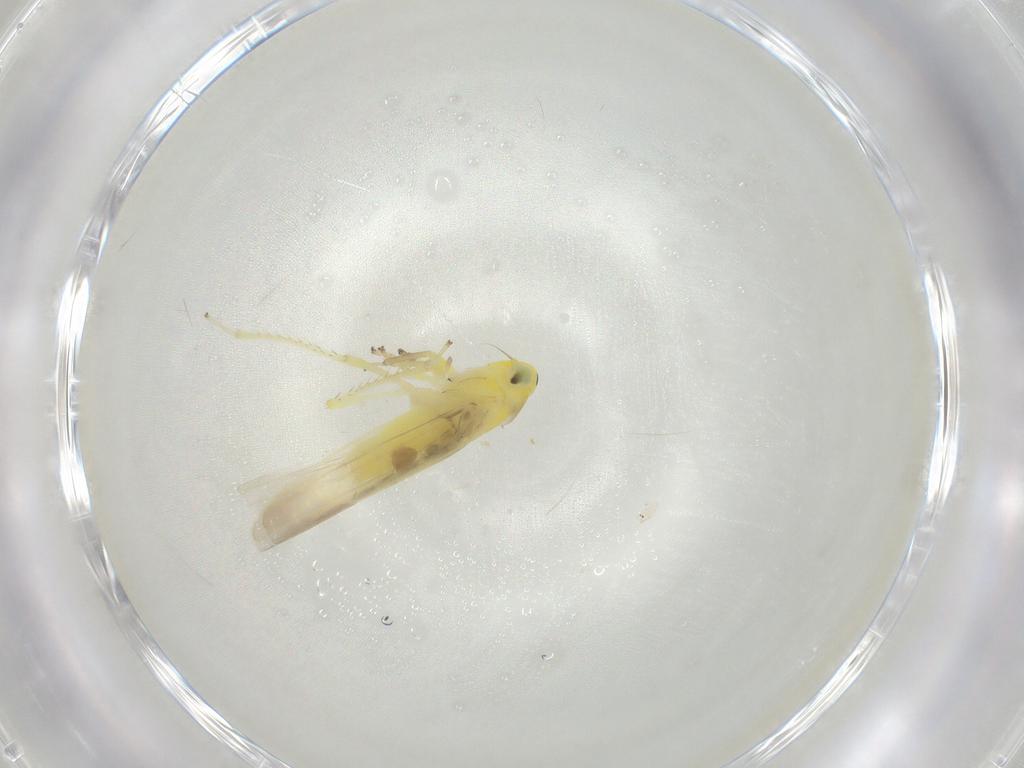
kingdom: Animalia
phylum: Arthropoda
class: Insecta
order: Hemiptera
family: Cicadellidae
